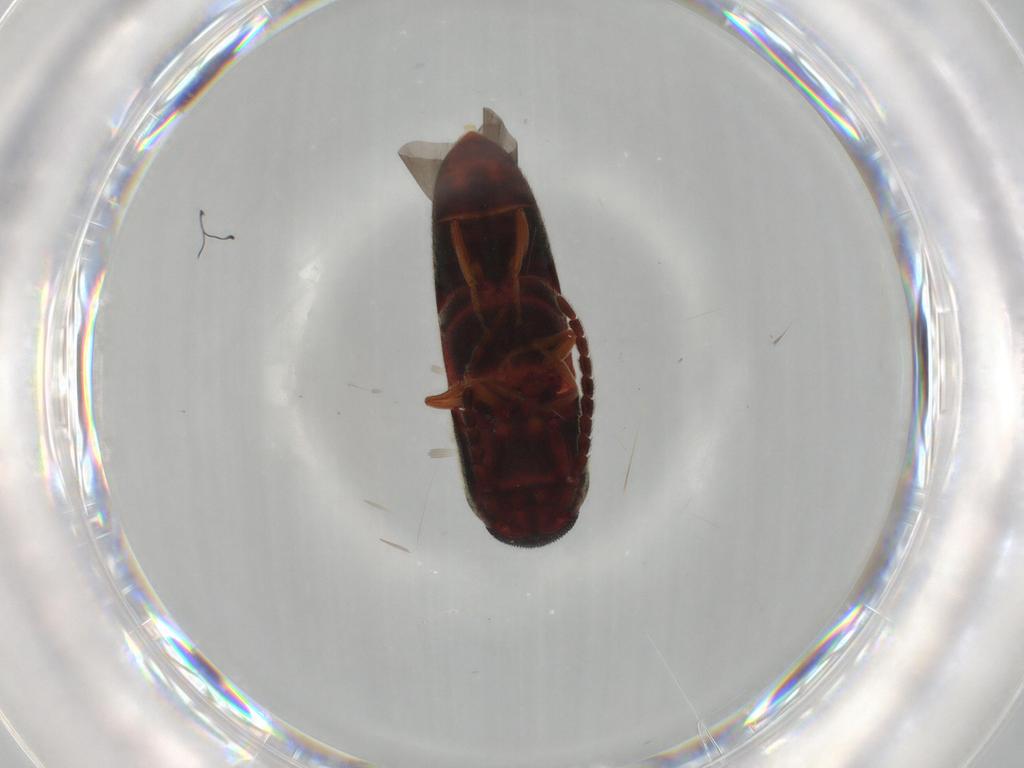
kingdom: Animalia
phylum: Arthropoda
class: Insecta
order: Coleoptera
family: Eucnemidae
